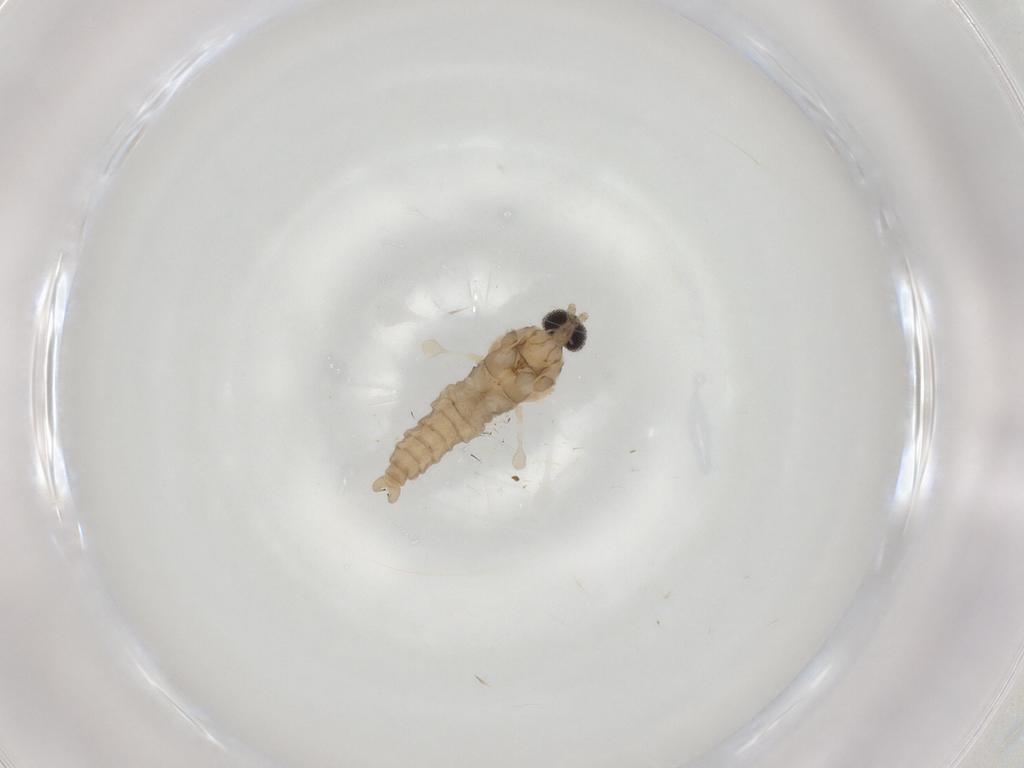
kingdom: Animalia
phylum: Arthropoda
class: Insecta
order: Diptera
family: Cecidomyiidae
